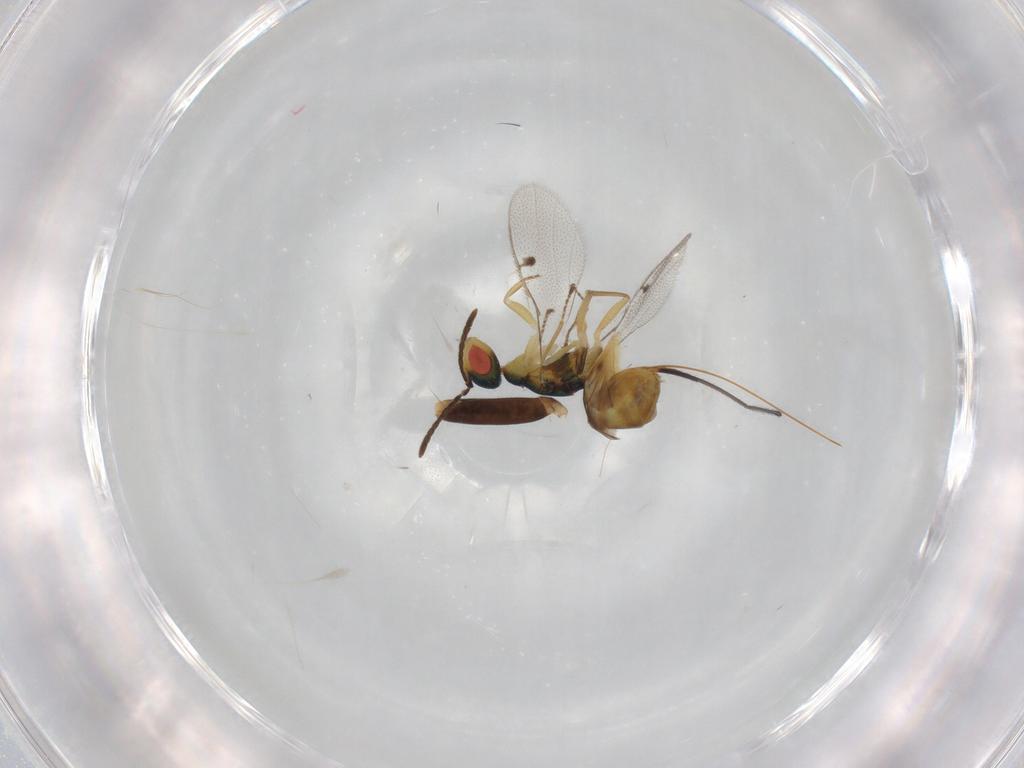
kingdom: Animalia
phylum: Arthropoda
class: Insecta
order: Hymenoptera
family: Megastigmidae
